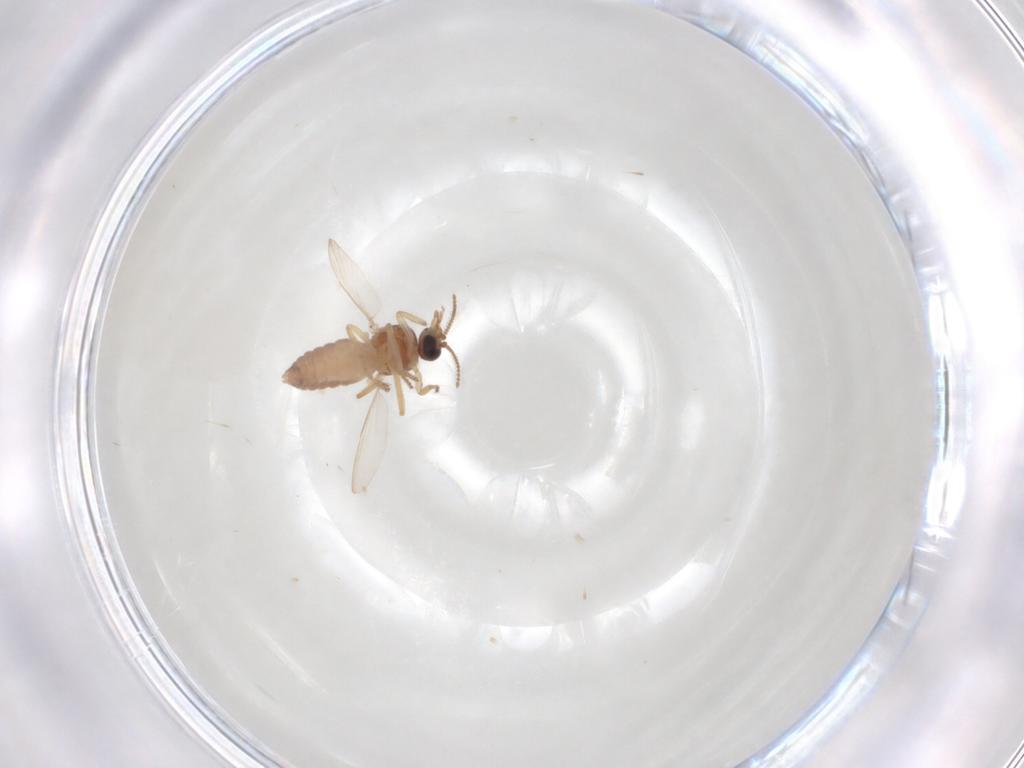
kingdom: Animalia
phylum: Arthropoda
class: Insecta
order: Diptera
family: Ceratopogonidae
